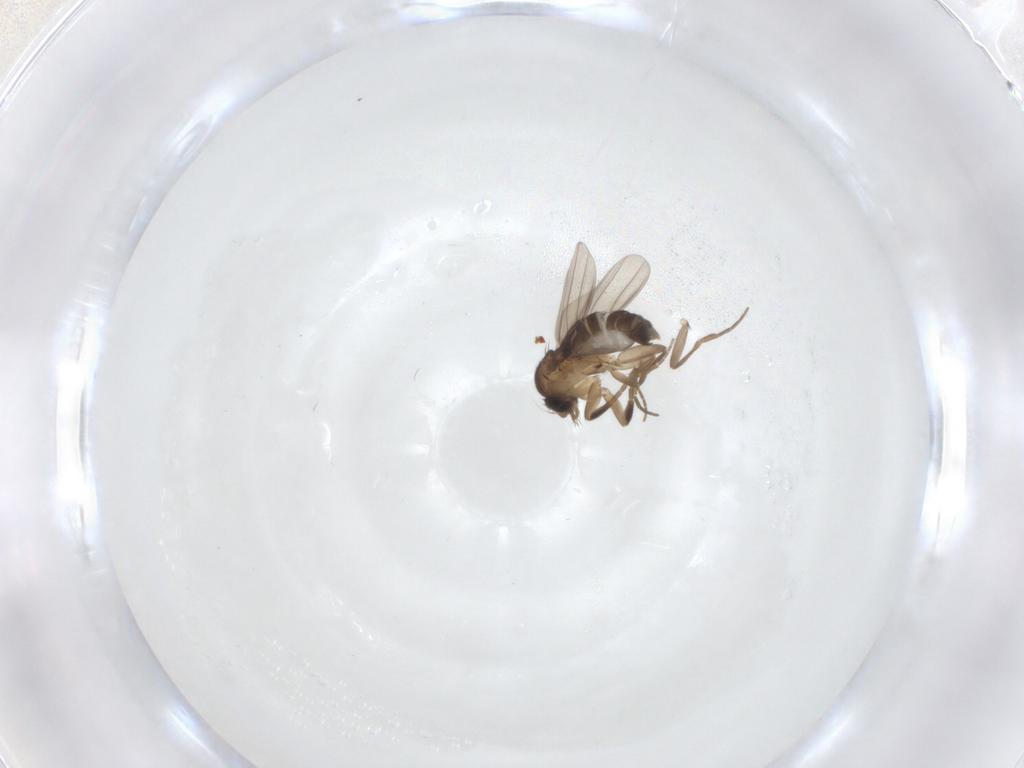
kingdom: Animalia
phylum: Arthropoda
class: Insecta
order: Diptera
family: Phoridae
